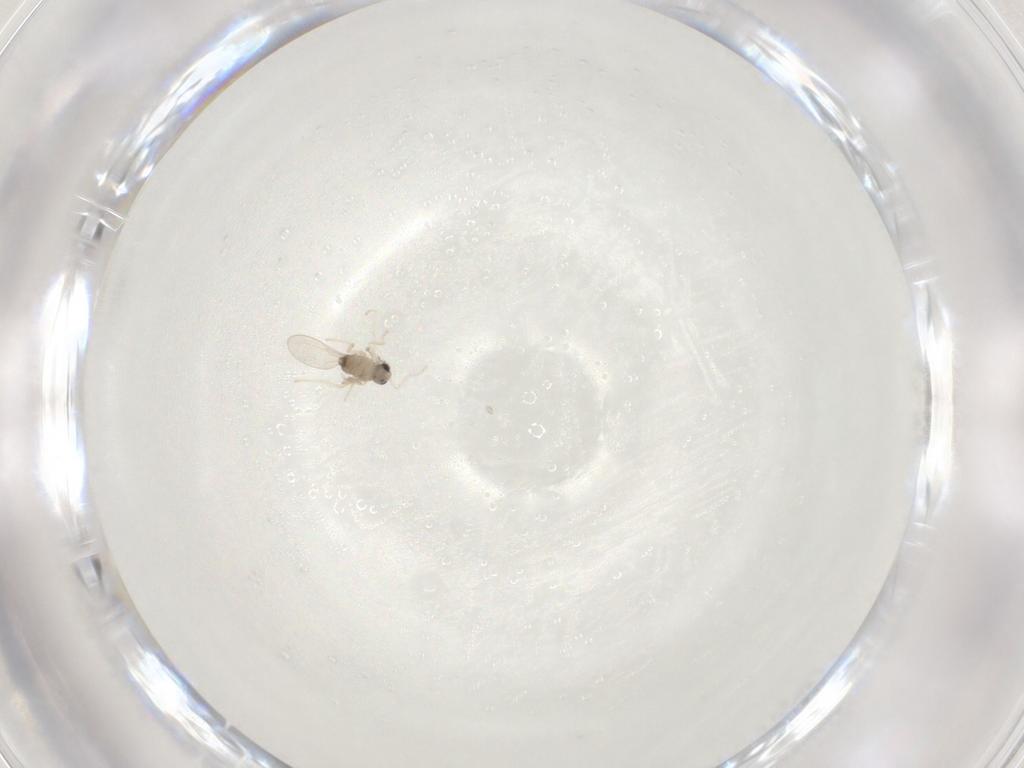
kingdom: Animalia
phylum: Arthropoda
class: Insecta
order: Diptera
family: Cecidomyiidae
